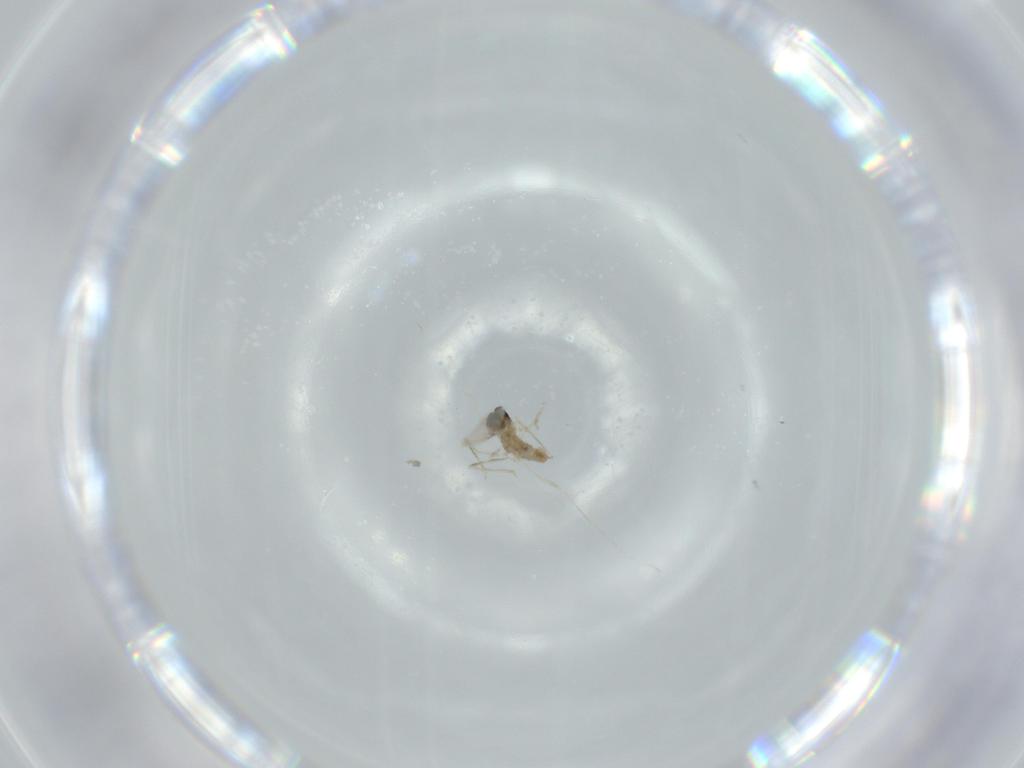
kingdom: Animalia
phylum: Arthropoda
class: Insecta
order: Diptera
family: Cecidomyiidae
